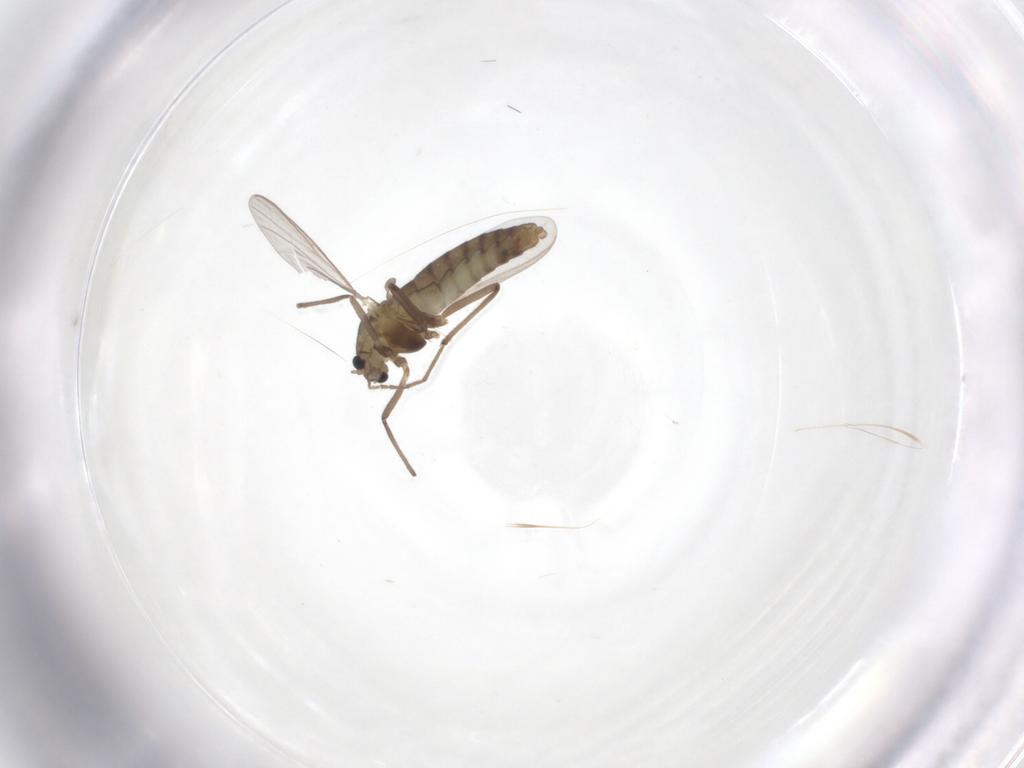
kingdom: Animalia
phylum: Arthropoda
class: Insecta
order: Diptera
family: Chironomidae
